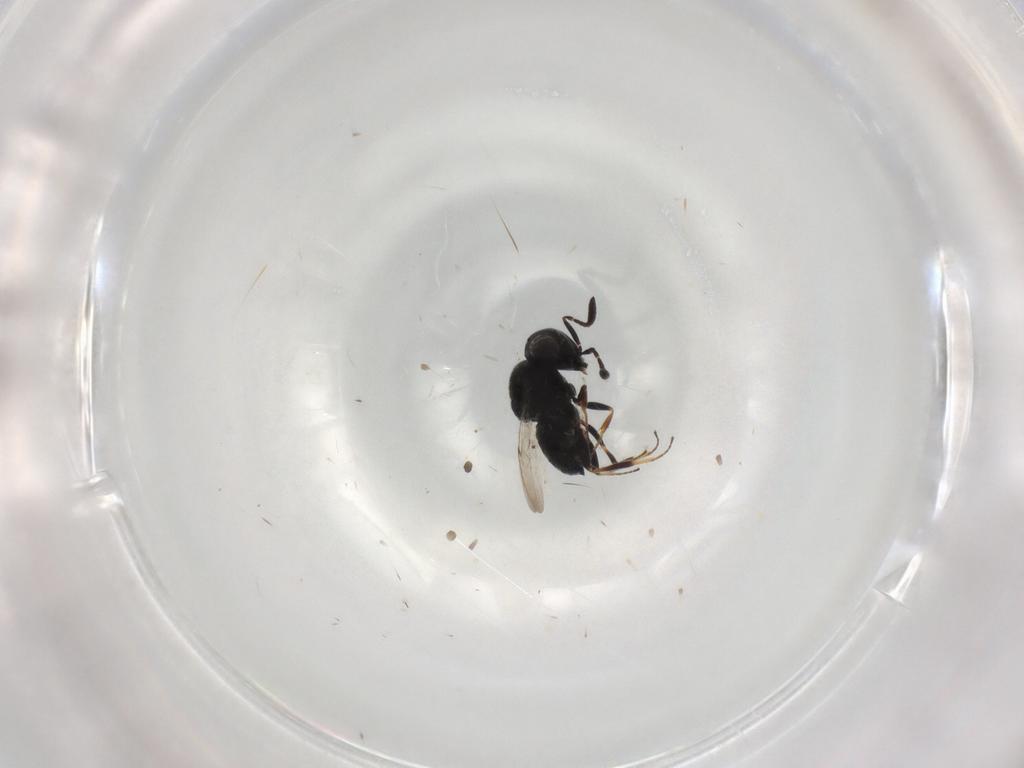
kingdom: Animalia
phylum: Arthropoda
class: Insecta
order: Hymenoptera
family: Scelionidae
